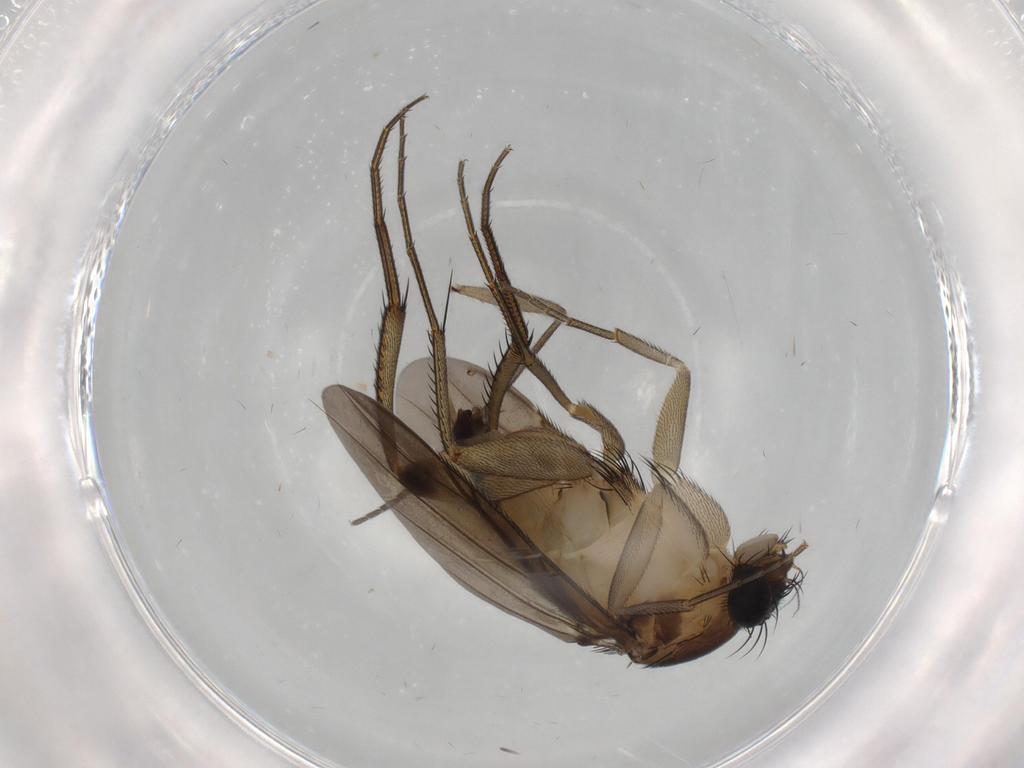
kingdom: Animalia
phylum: Arthropoda
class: Insecta
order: Diptera
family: Phoridae
